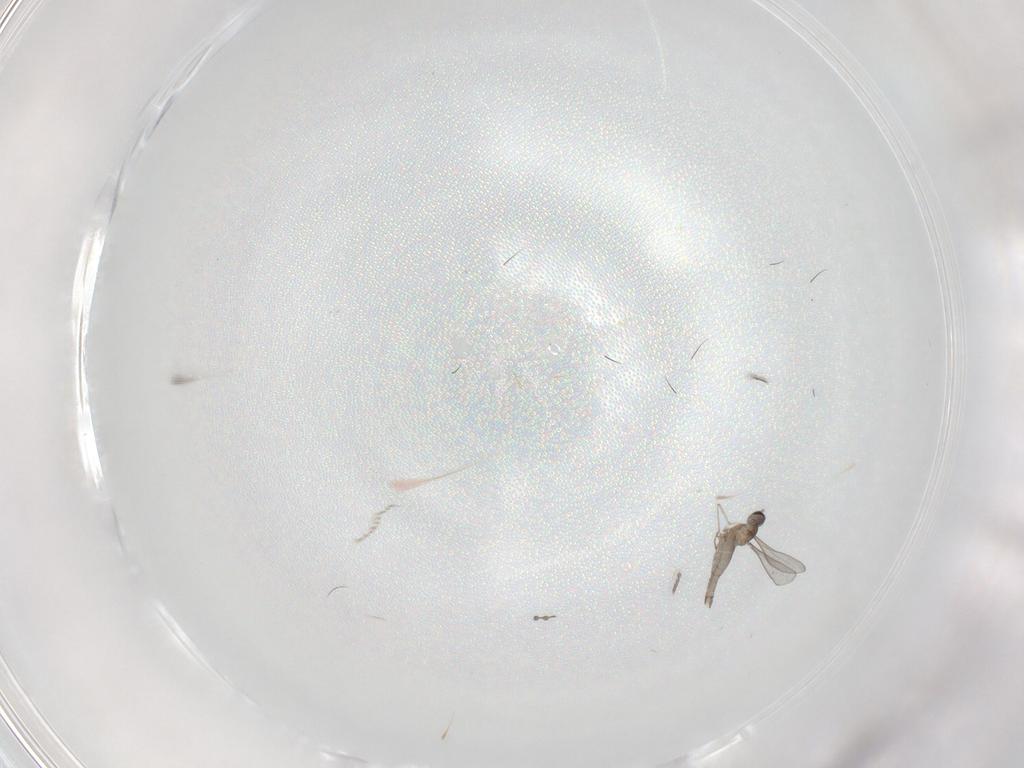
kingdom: Animalia
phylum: Arthropoda
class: Insecta
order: Diptera
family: Cecidomyiidae
